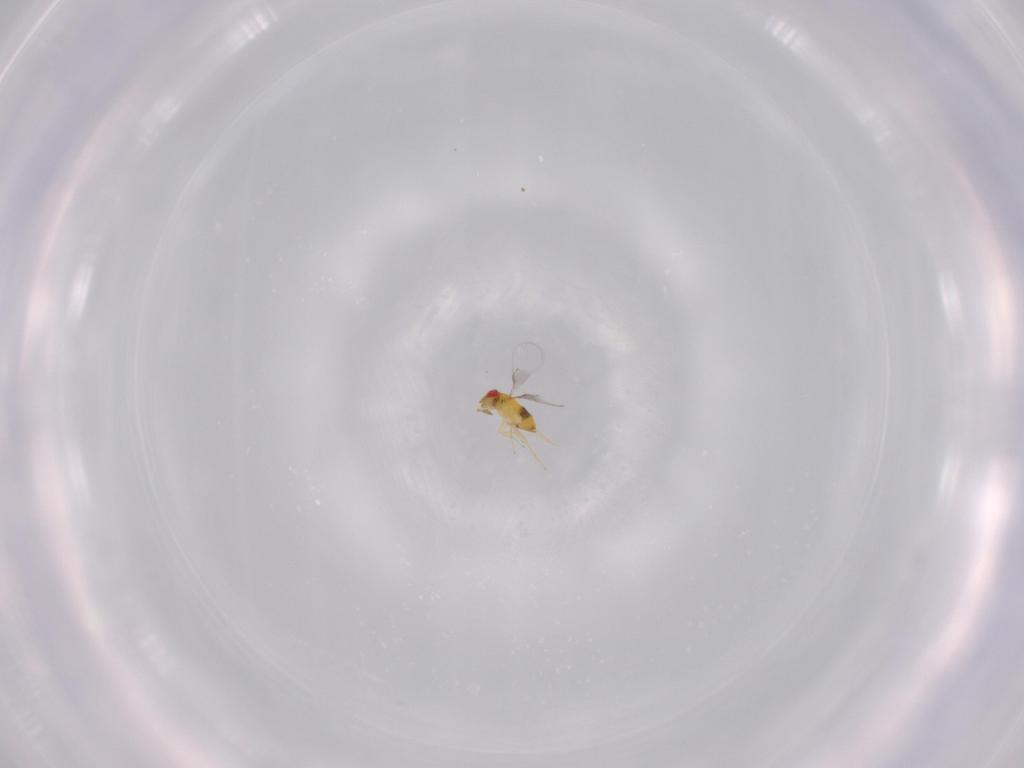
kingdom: Animalia
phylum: Arthropoda
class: Insecta
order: Hymenoptera
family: Trichogrammatidae
